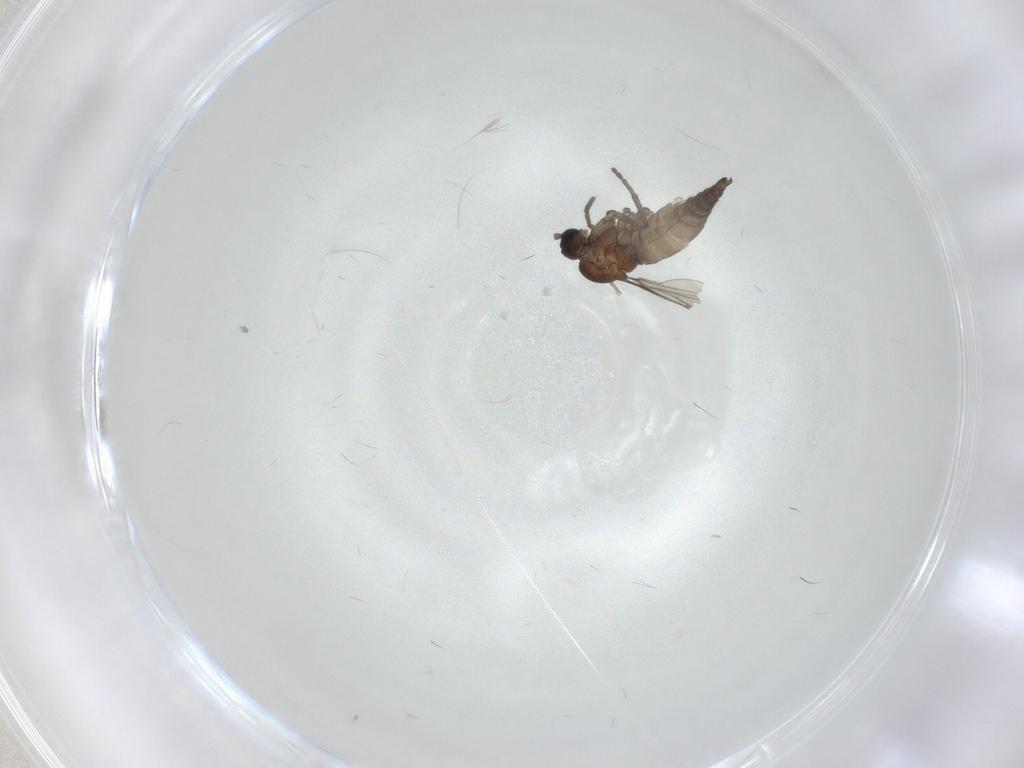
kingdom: Animalia
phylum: Arthropoda
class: Insecta
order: Diptera
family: Sciaridae
